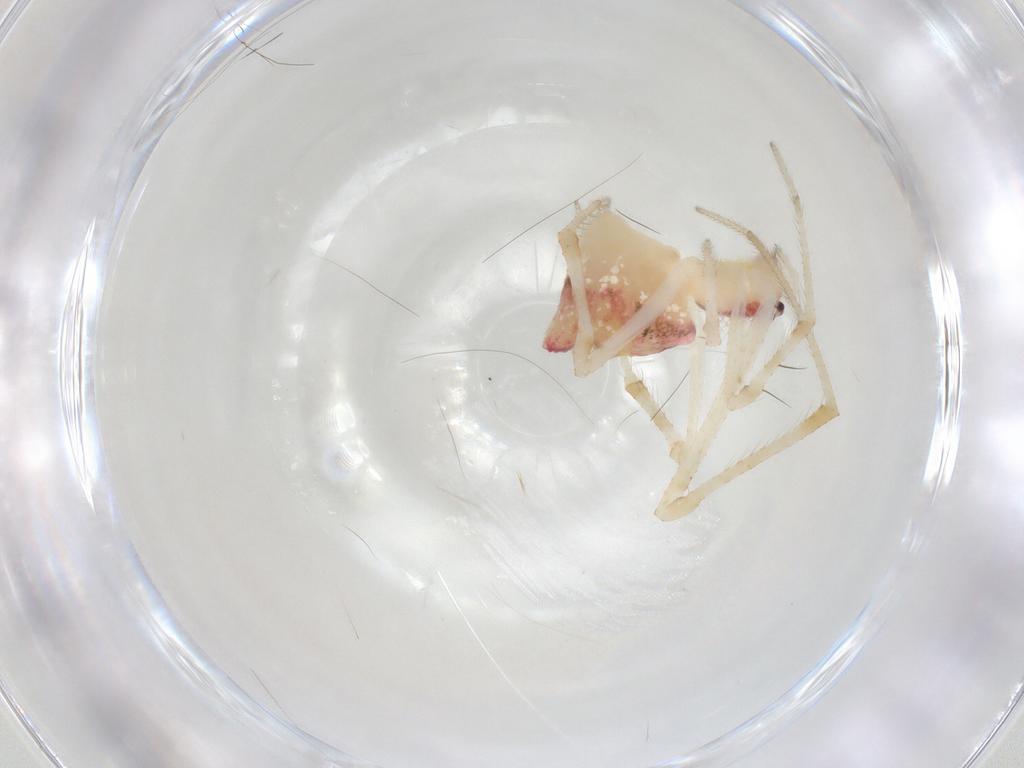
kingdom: Animalia
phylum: Arthropoda
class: Arachnida
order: Araneae
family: Theridiidae
